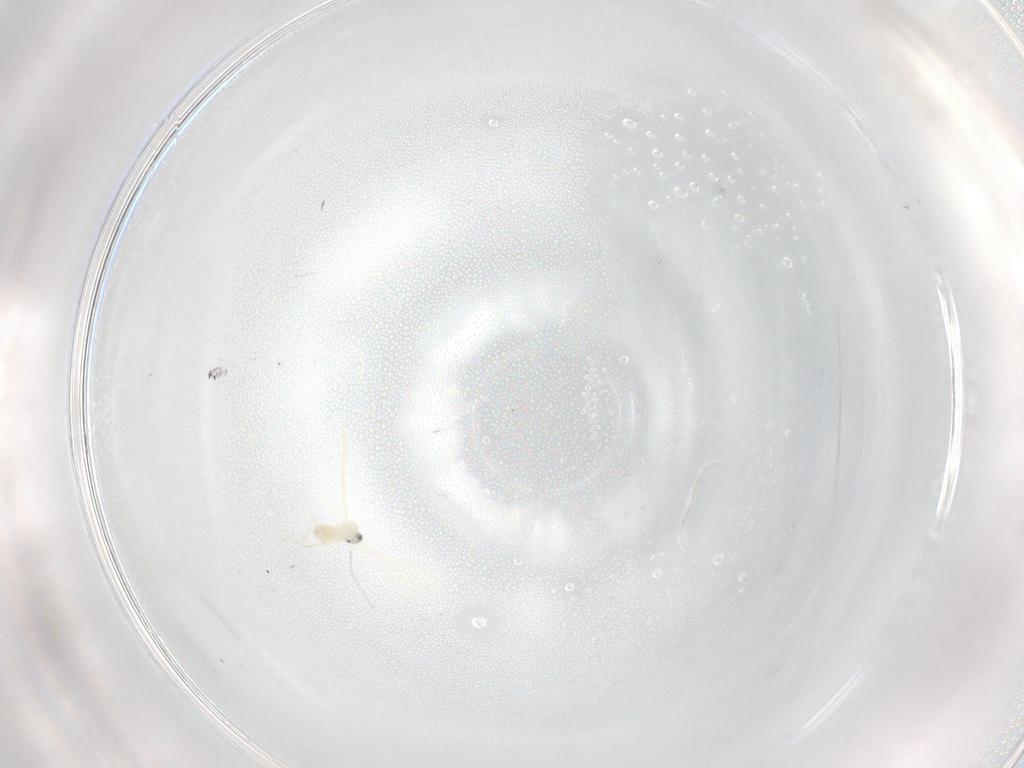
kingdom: Animalia
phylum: Arthropoda
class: Insecta
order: Diptera
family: Cecidomyiidae
